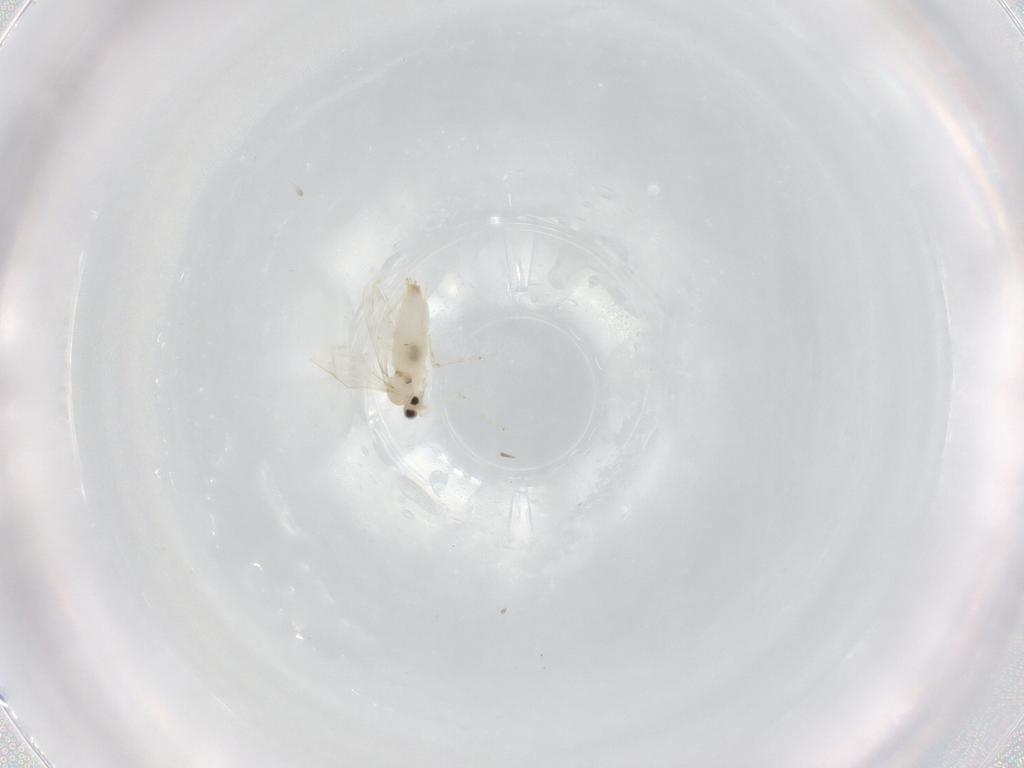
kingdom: Animalia
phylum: Arthropoda
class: Insecta
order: Diptera
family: Cecidomyiidae
